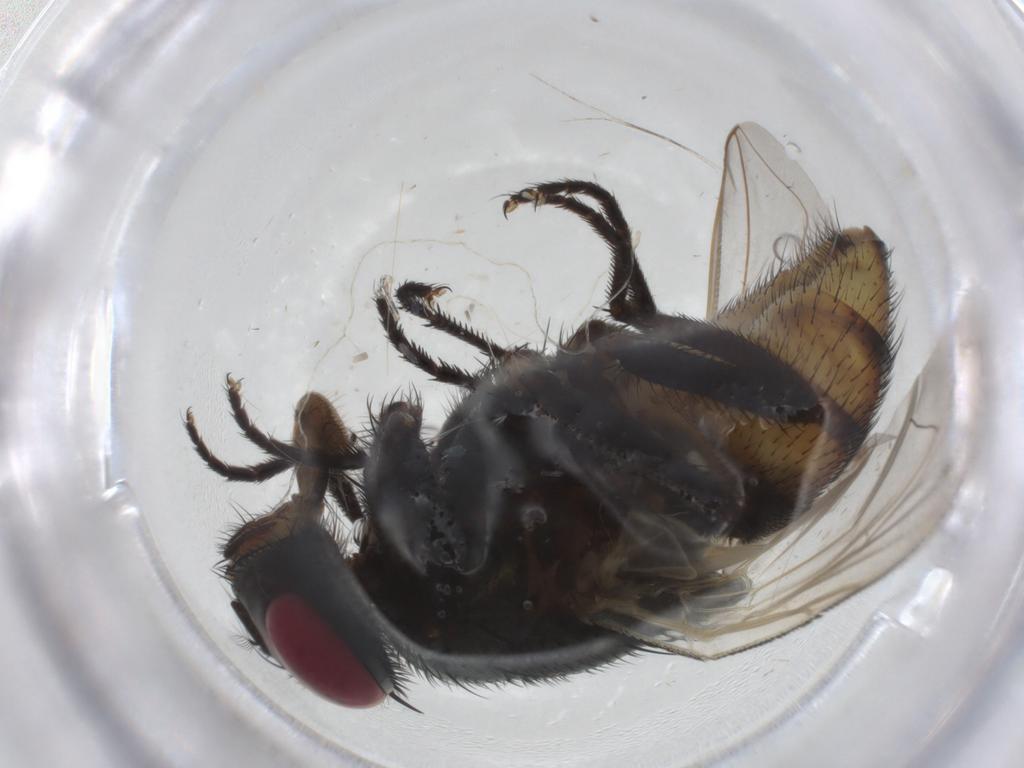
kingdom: Animalia
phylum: Arthropoda
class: Insecta
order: Diptera
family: Muscidae
